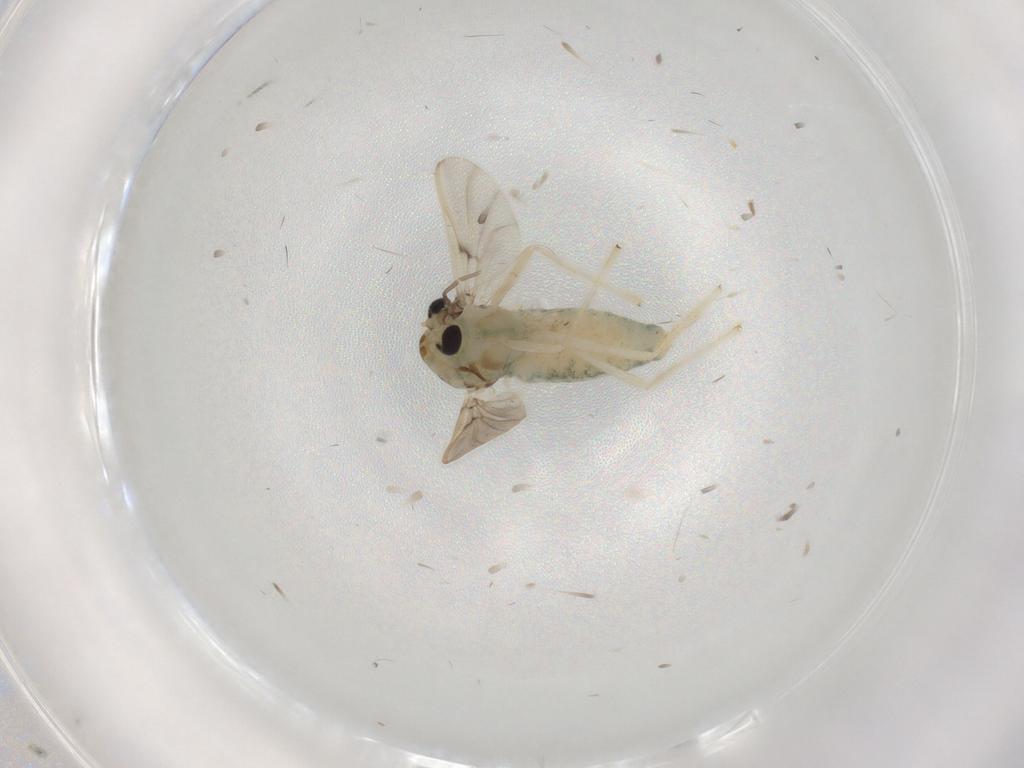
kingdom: Animalia
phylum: Arthropoda
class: Insecta
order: Diptera
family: Chironomidae
